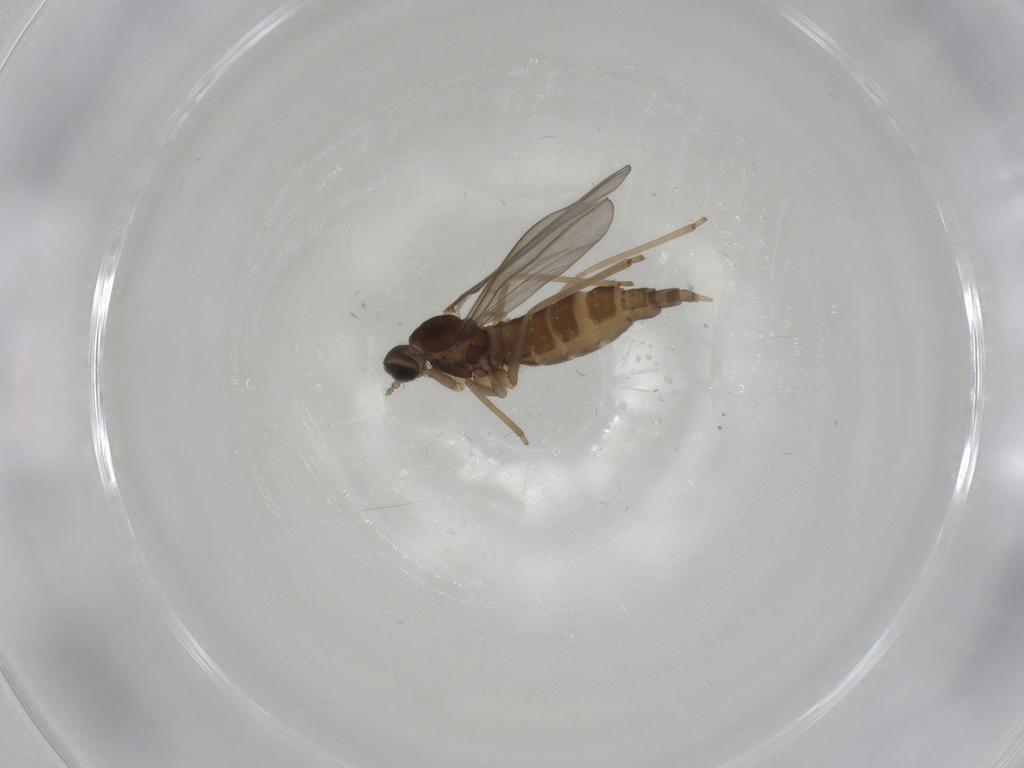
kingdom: Animalia
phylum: Arthropoda
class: Insecta
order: Diptera
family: Cecidomyiidae
